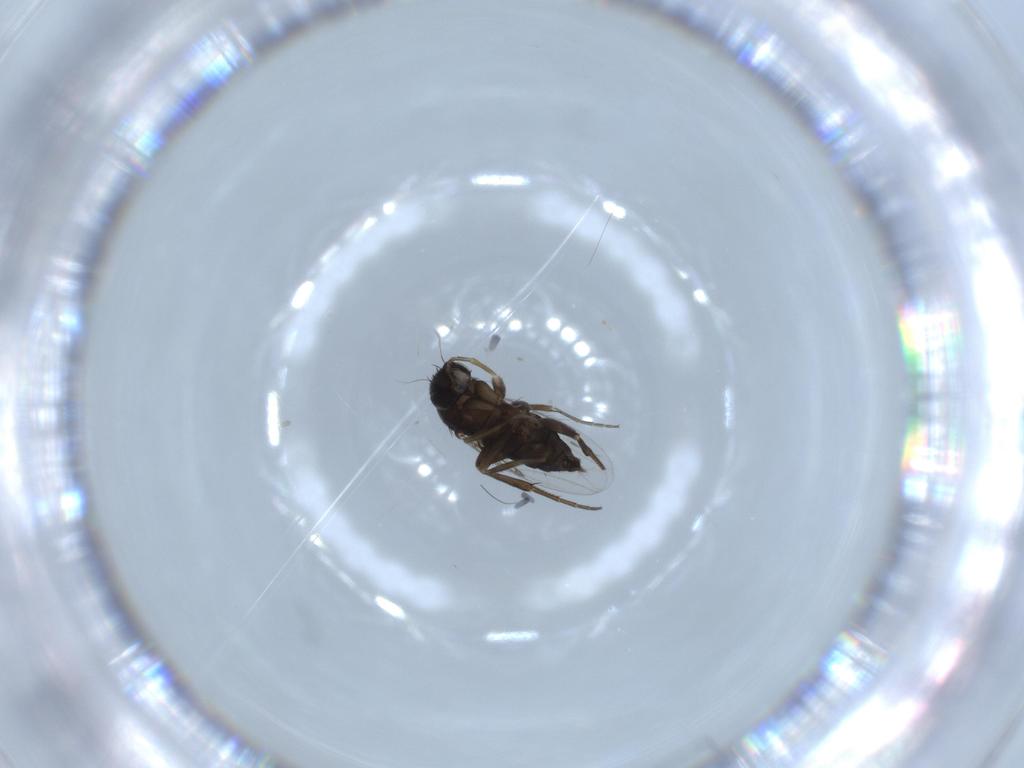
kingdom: Animalia
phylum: Arthropoda
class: Insecta
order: Diptera
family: Phoridae
